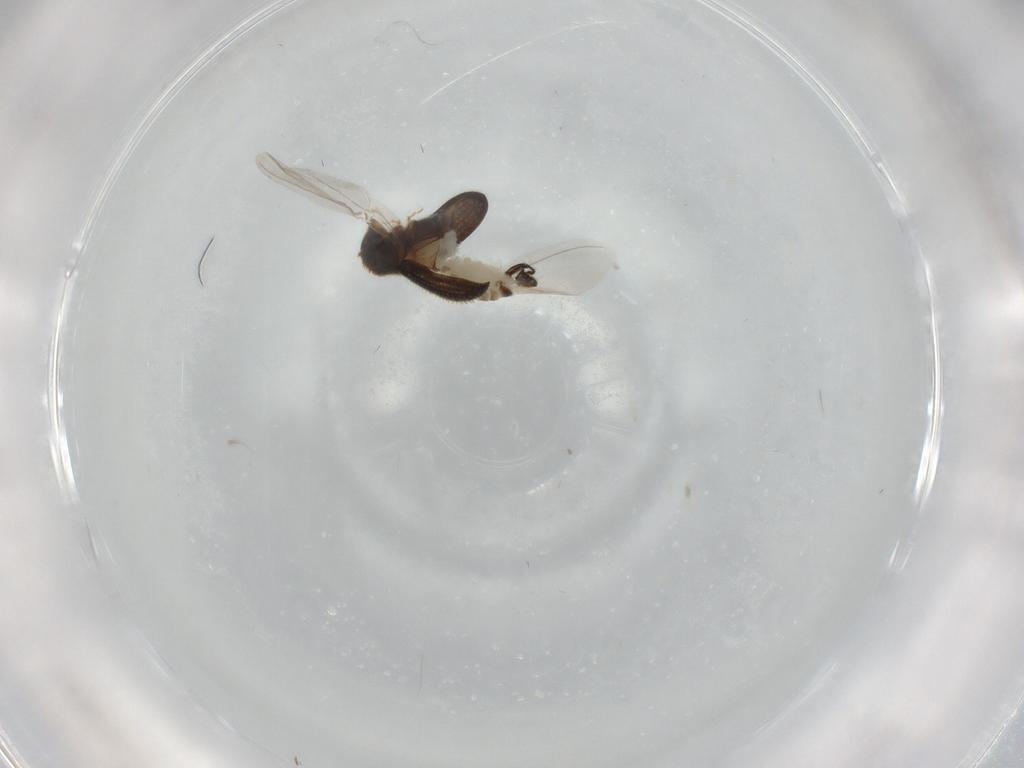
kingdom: Animalia
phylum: Arthropoda
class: Insecta
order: Coleoptera
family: Curculionidae
